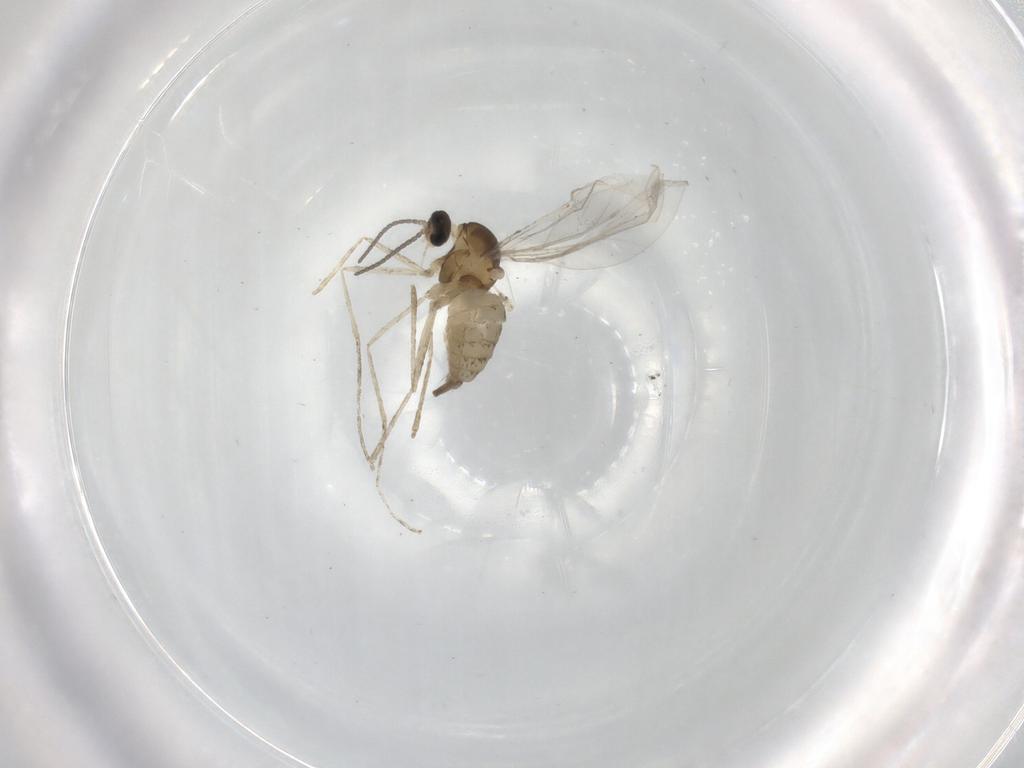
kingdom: Animalia
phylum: Arthropoda
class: Insecta
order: Diptera
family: Cecidomyiidae
